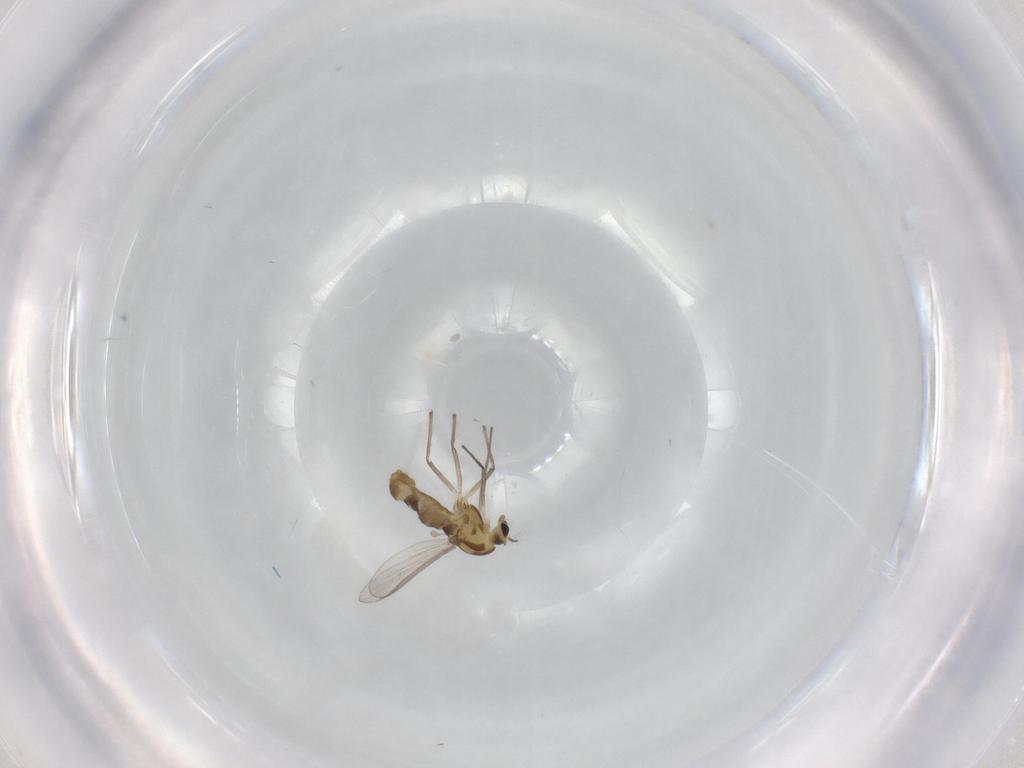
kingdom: Animalia
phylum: Arthropoda
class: Insecta
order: Diptera
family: Chironomidae
